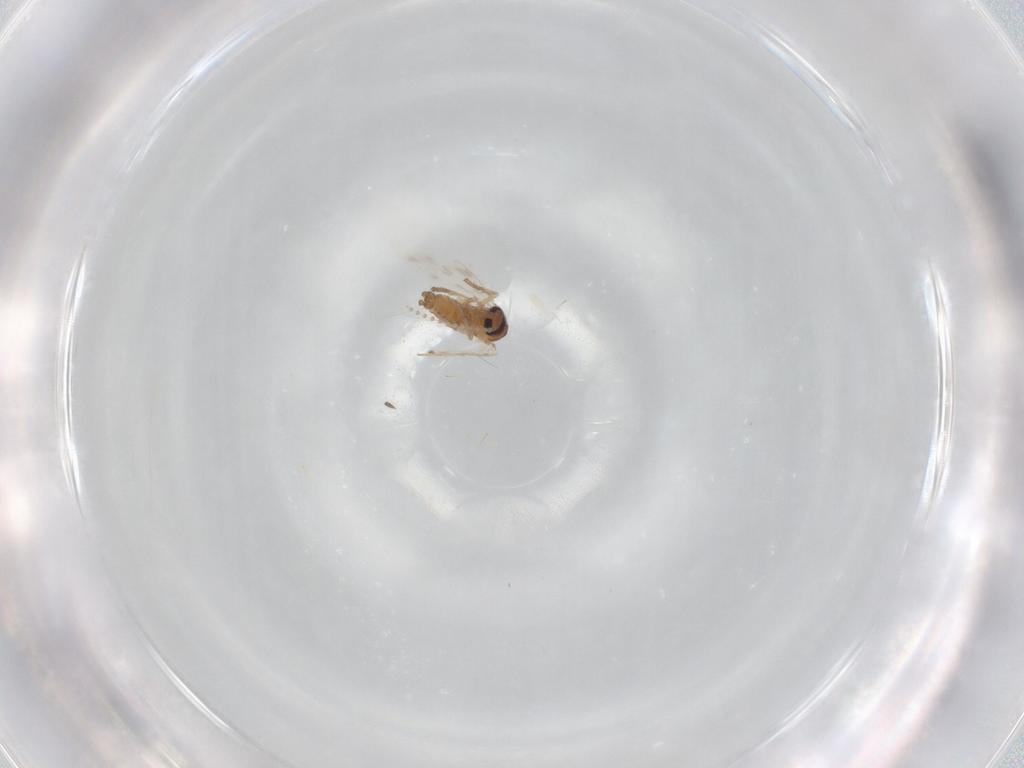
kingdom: Animalia
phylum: Arthropoda
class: Insecta
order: Diptera
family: Psychodidae
